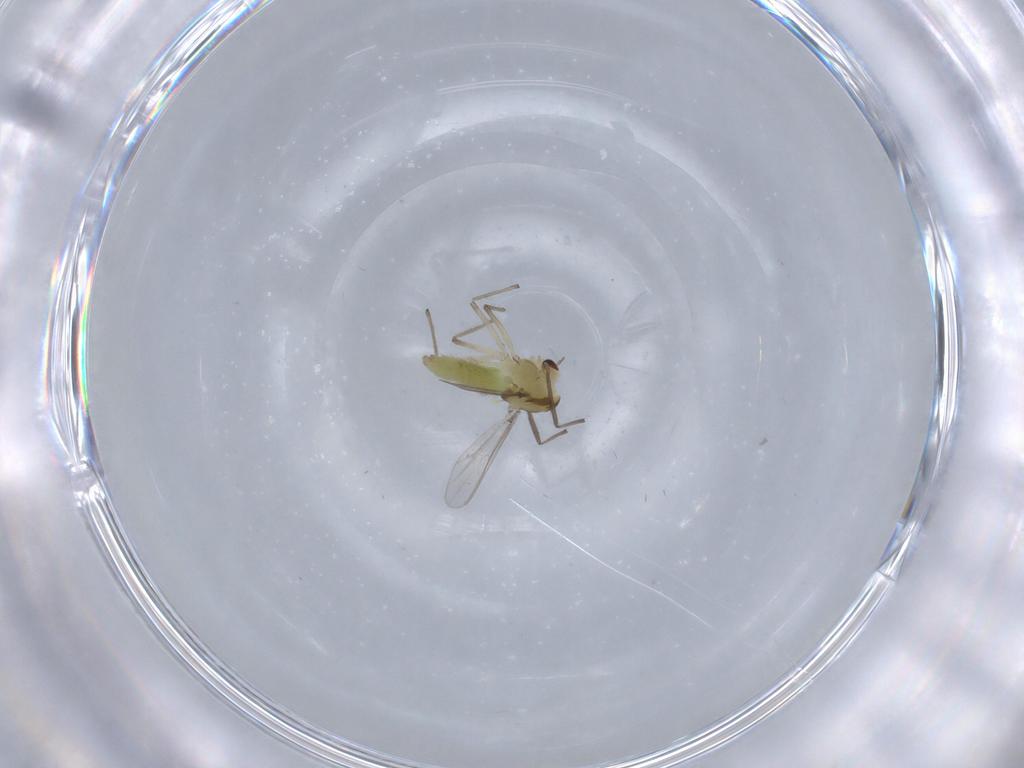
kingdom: Animalia
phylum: Arthropoda
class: Insecta
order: Diptera
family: Chironomidae
